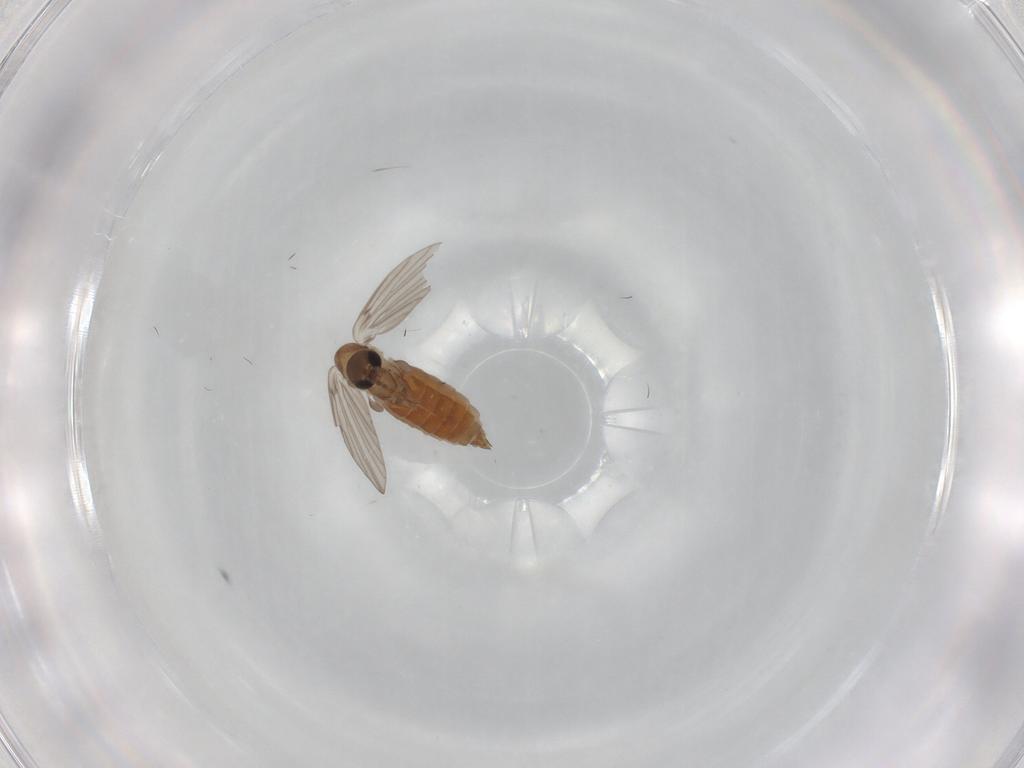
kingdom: Animalia
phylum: Arthropoda
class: Insecta
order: Diptera
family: Psychodidae
